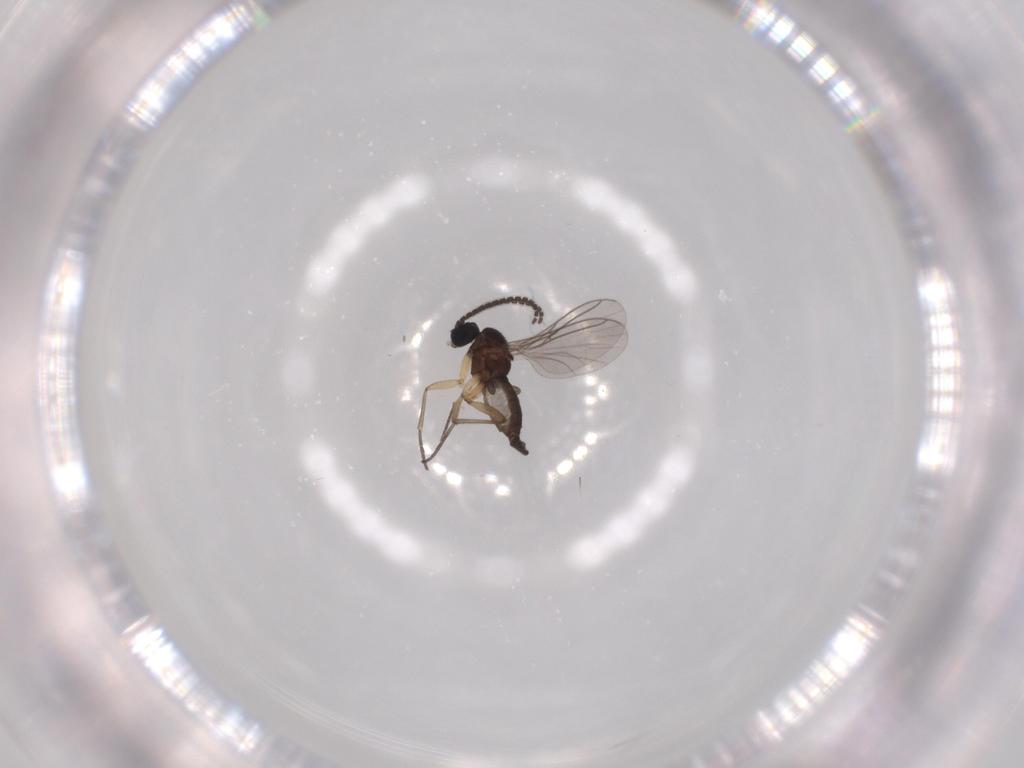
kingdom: Animalia
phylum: Arthropoda
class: Insecta
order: Diptera
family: Sciaridae
